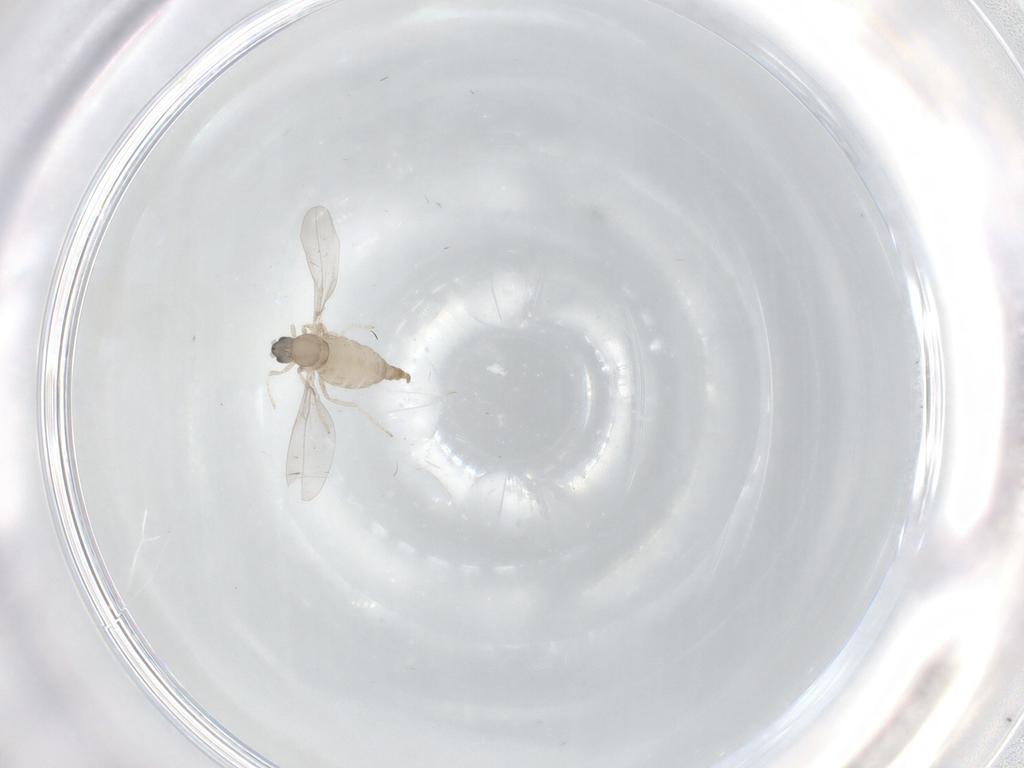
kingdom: Animalia
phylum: Arthropoda
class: Insecta
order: Diptera
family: Cecidomyiidae
